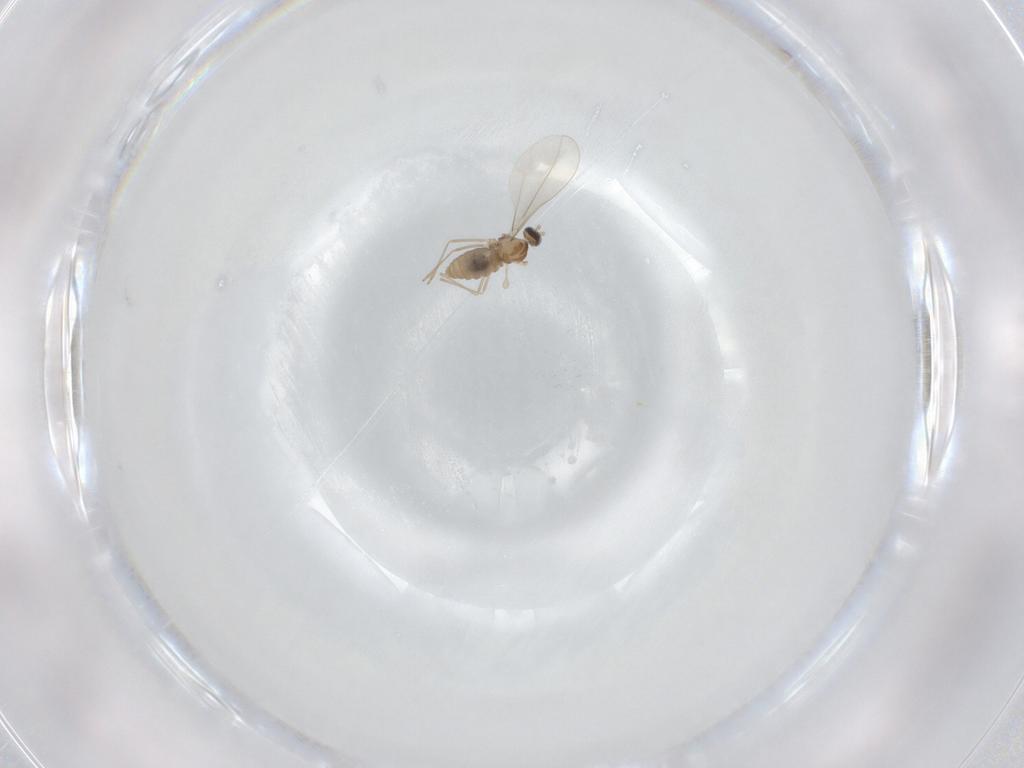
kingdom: Animalia
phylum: Arthropoda
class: Insecta
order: Diptera
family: Cecidomyiidae
